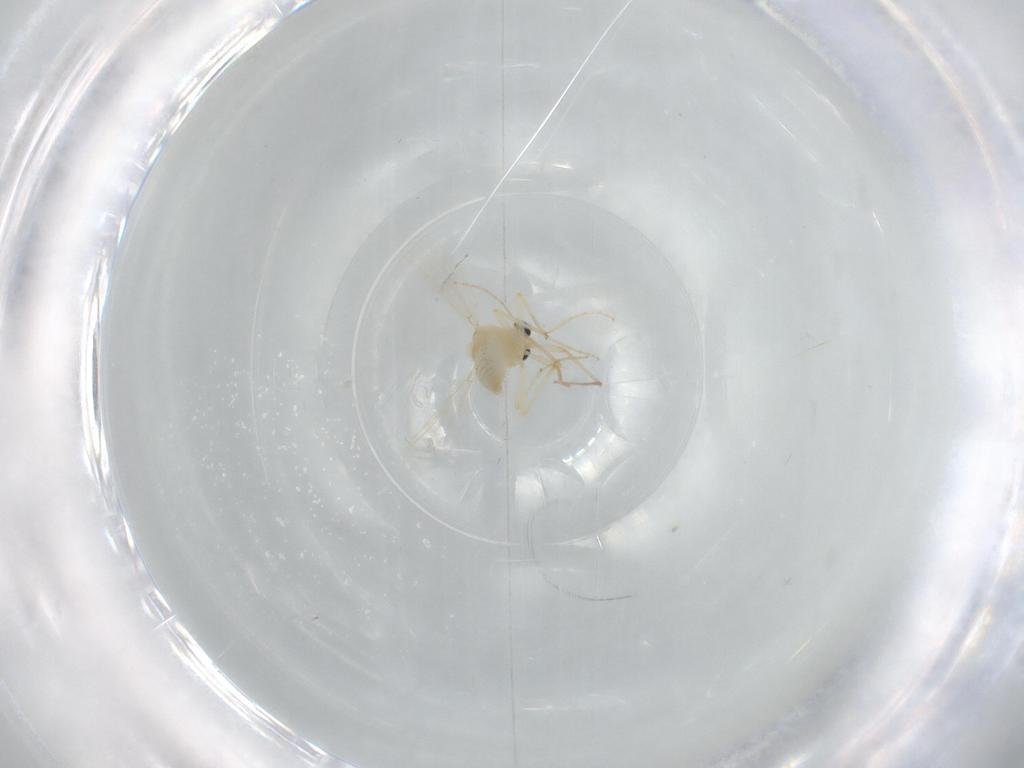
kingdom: Animalia
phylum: Arthropoda
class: Insecta
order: Diptera
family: Chironomidae
